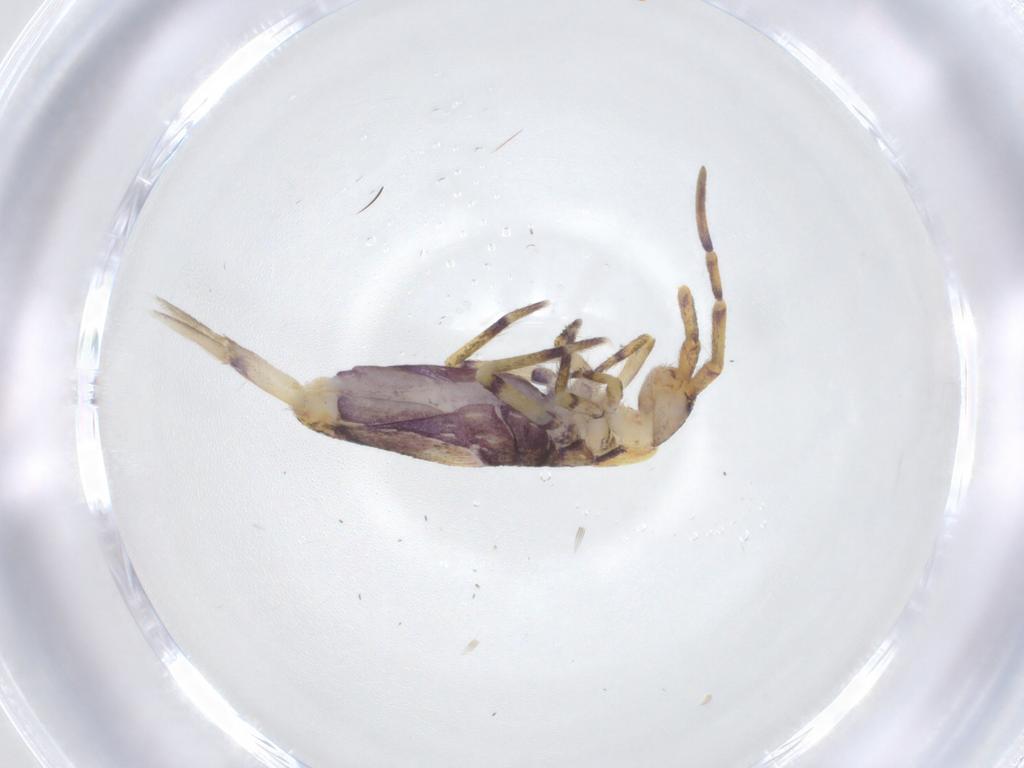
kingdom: Animalia
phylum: Arthropoda
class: Collembola
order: Entomobryomorpha
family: Entomobryidae
